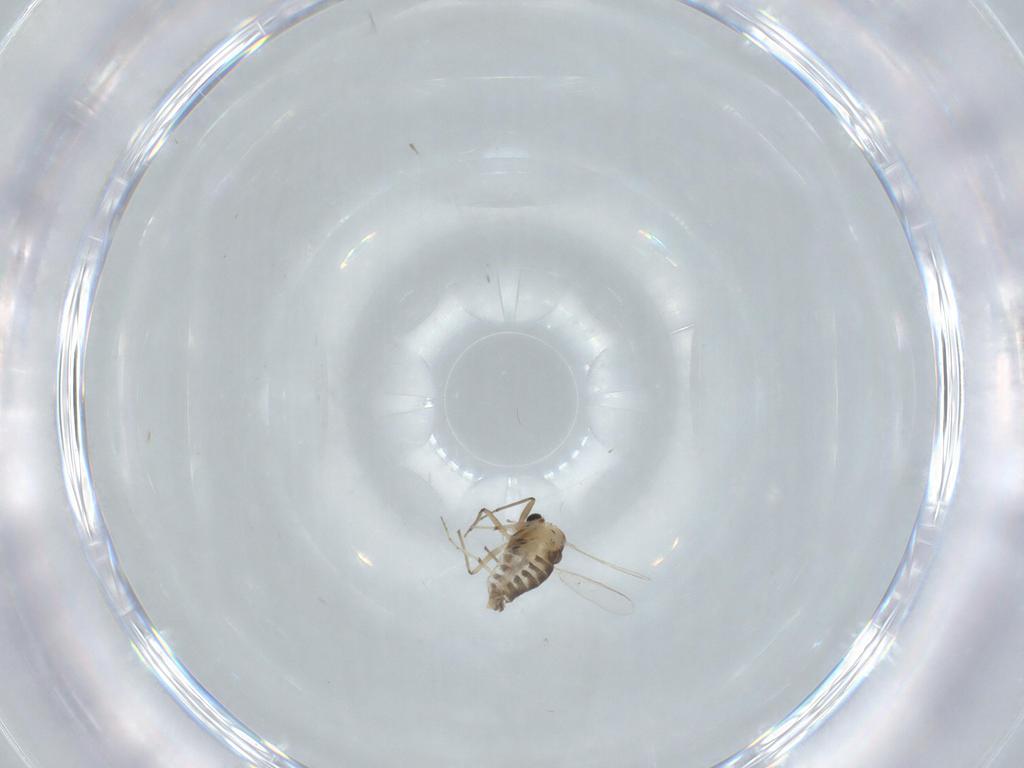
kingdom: Animalia
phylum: Arthropoda
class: Insecta
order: Diptera
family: Chironomidae
